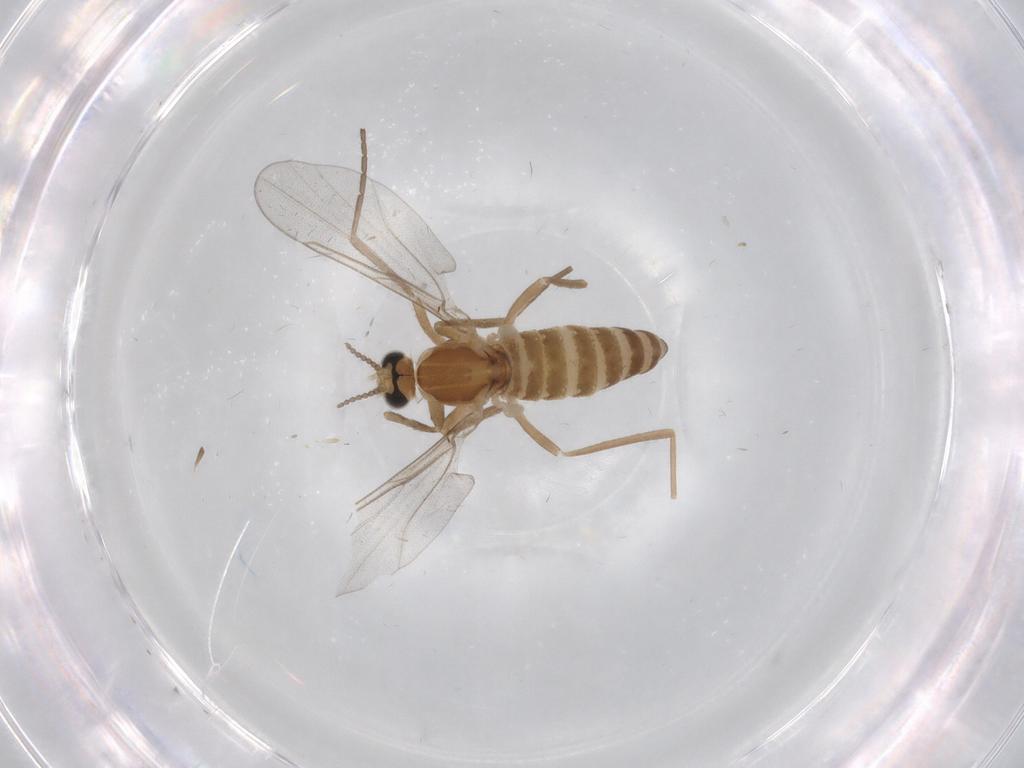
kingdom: Animalia
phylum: Arthropoda
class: Insecta
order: Diptera
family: Cecidomyiidae
